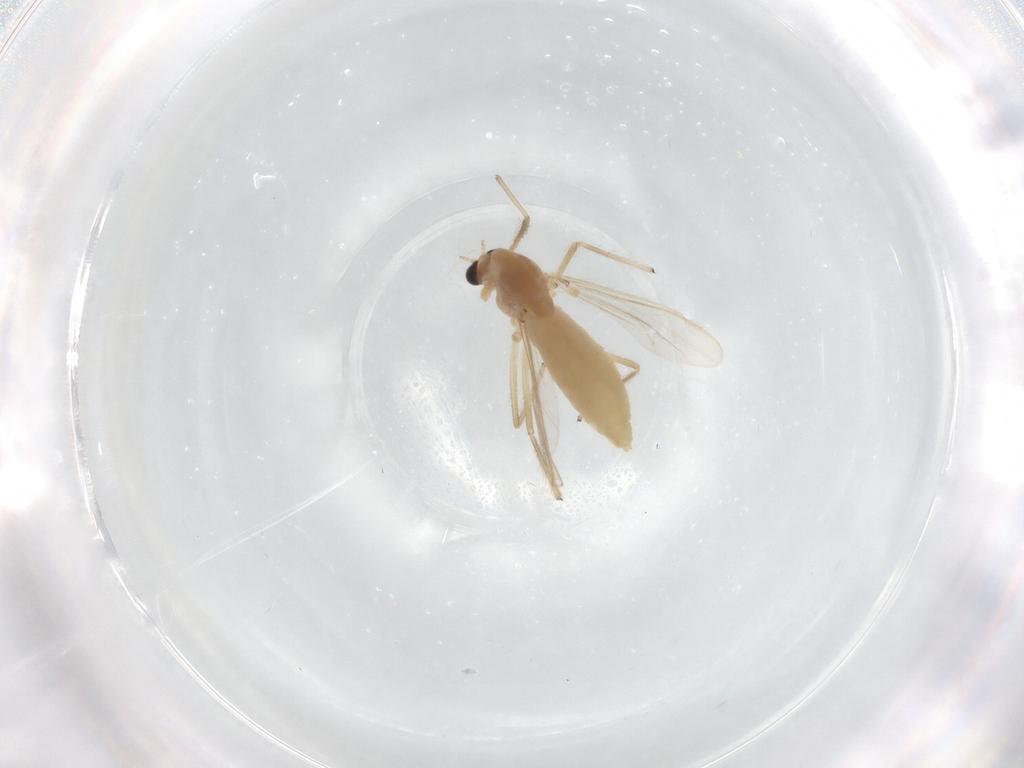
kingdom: Animalia
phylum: Arthropoda
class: Insecta
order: Diptera
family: Chironomidae
